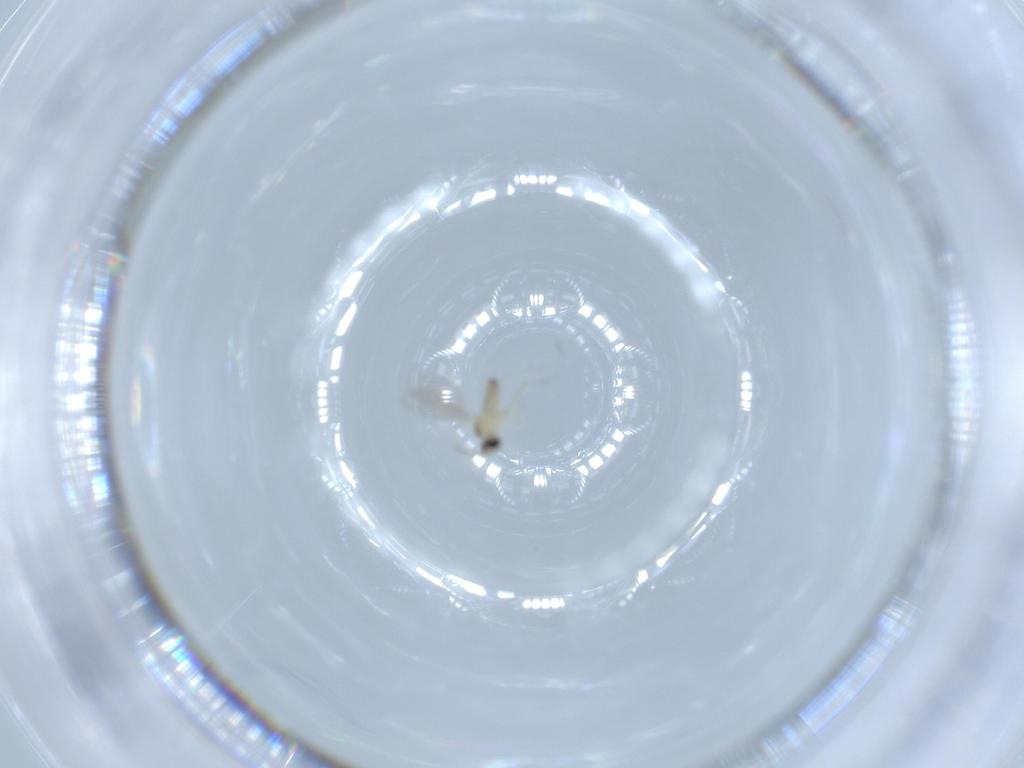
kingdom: Animalia
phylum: Arthropoda
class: Insecta
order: Diptera
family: Cecidomyiidae
